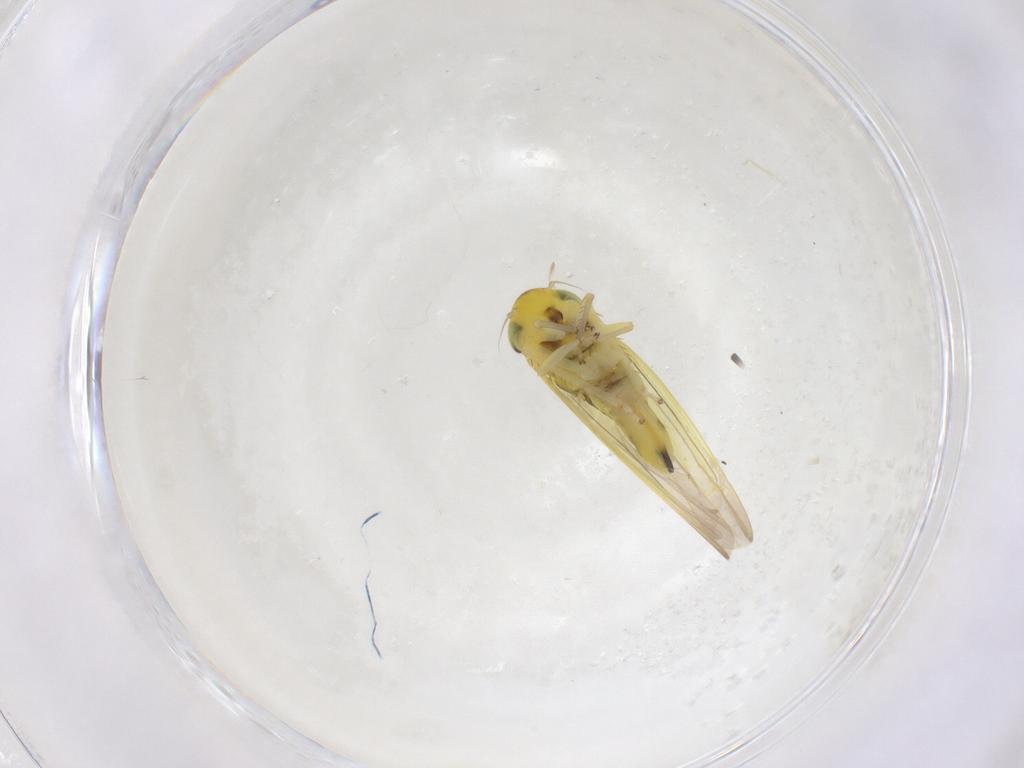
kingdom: Animalia
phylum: Arthropoda
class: Insecta
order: Hemiptera
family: Cicadellidae
